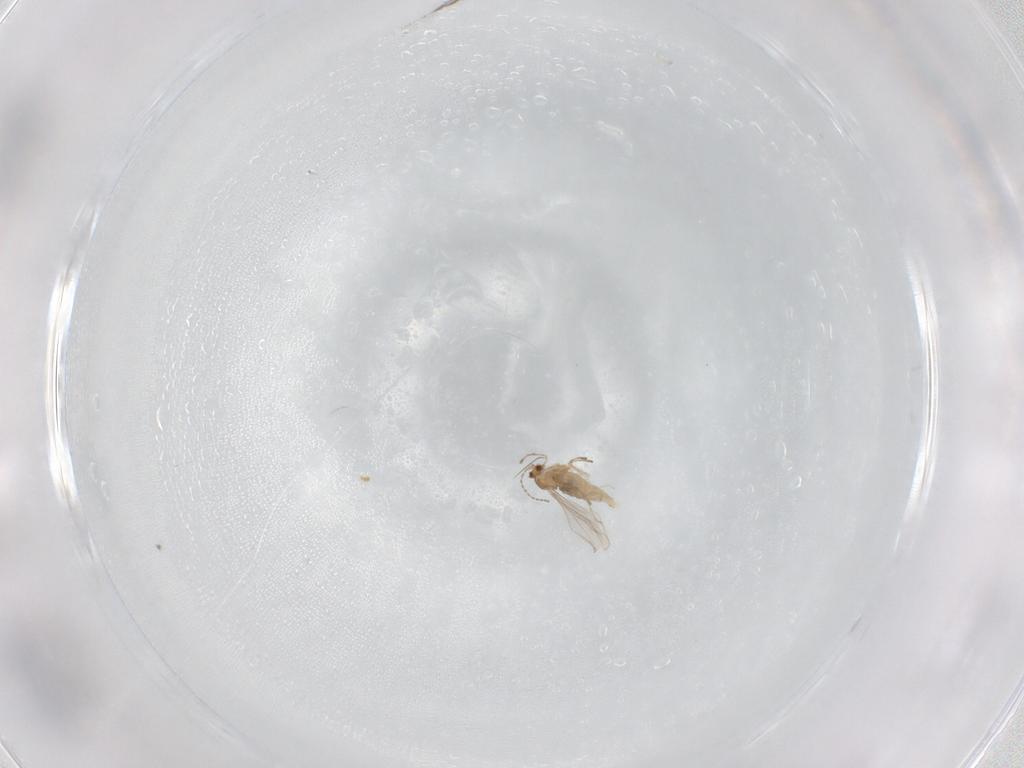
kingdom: Animalia
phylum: Arthropoda
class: Insecta
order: Diptera
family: Cecidomyiidae
